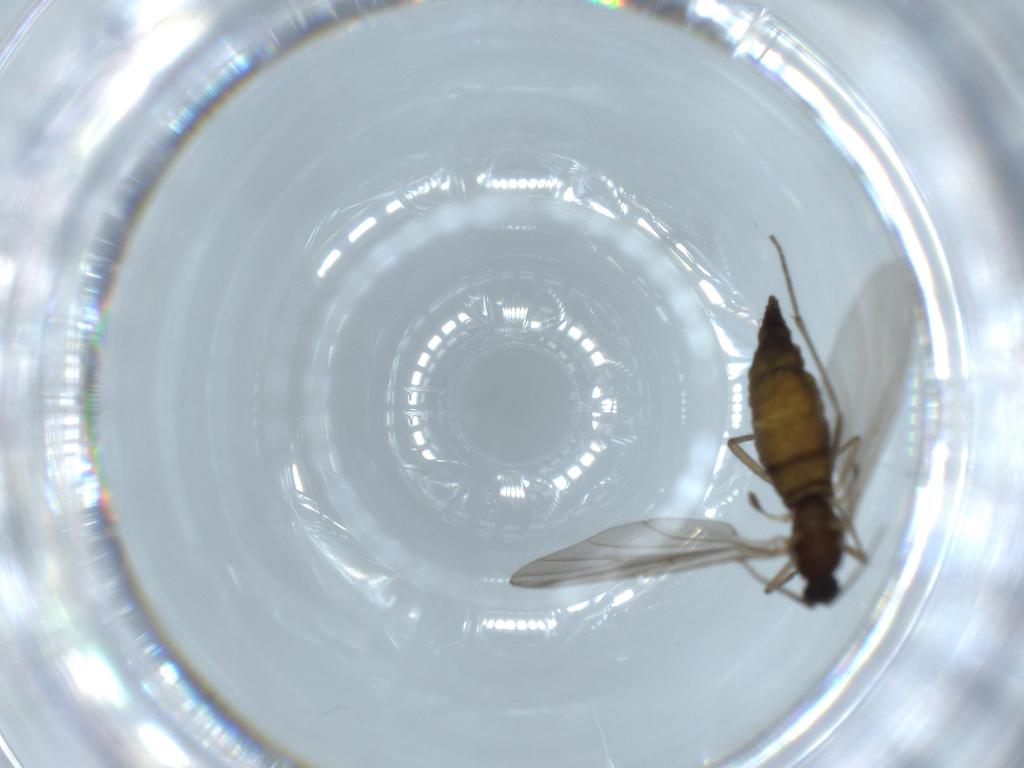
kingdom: Animalia
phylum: Arthropoda
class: Insecta
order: Diptera
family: Sciaridae
